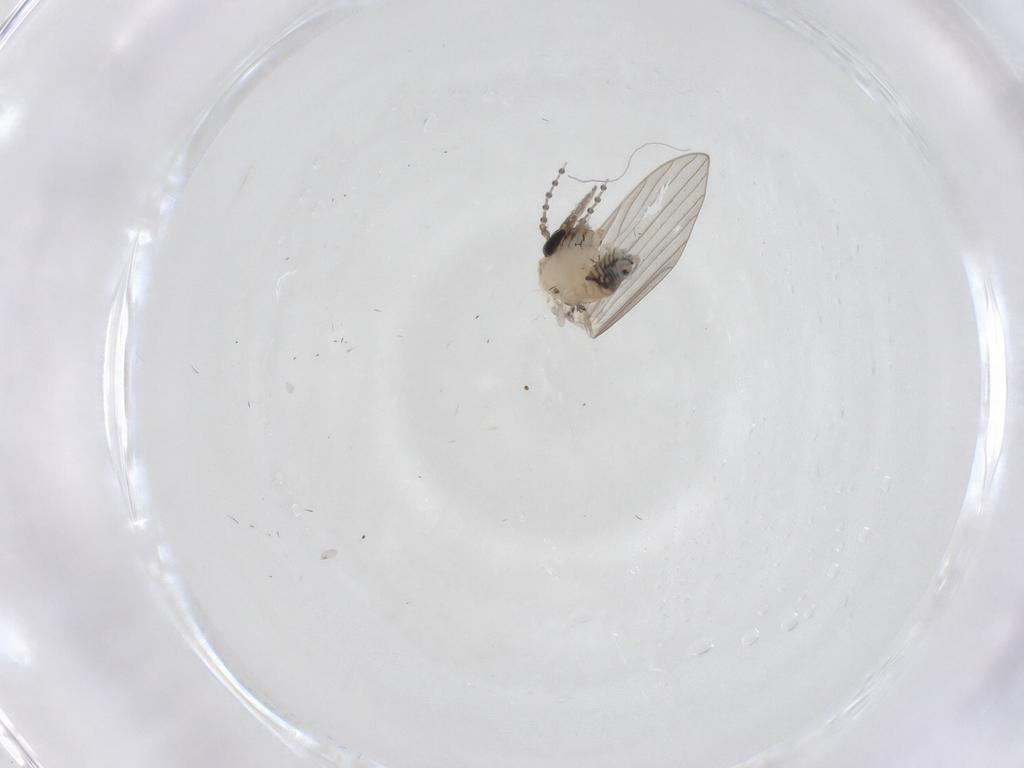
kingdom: Animalia
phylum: Arthropoda
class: Insecta
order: Diptera
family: Psychodidae
